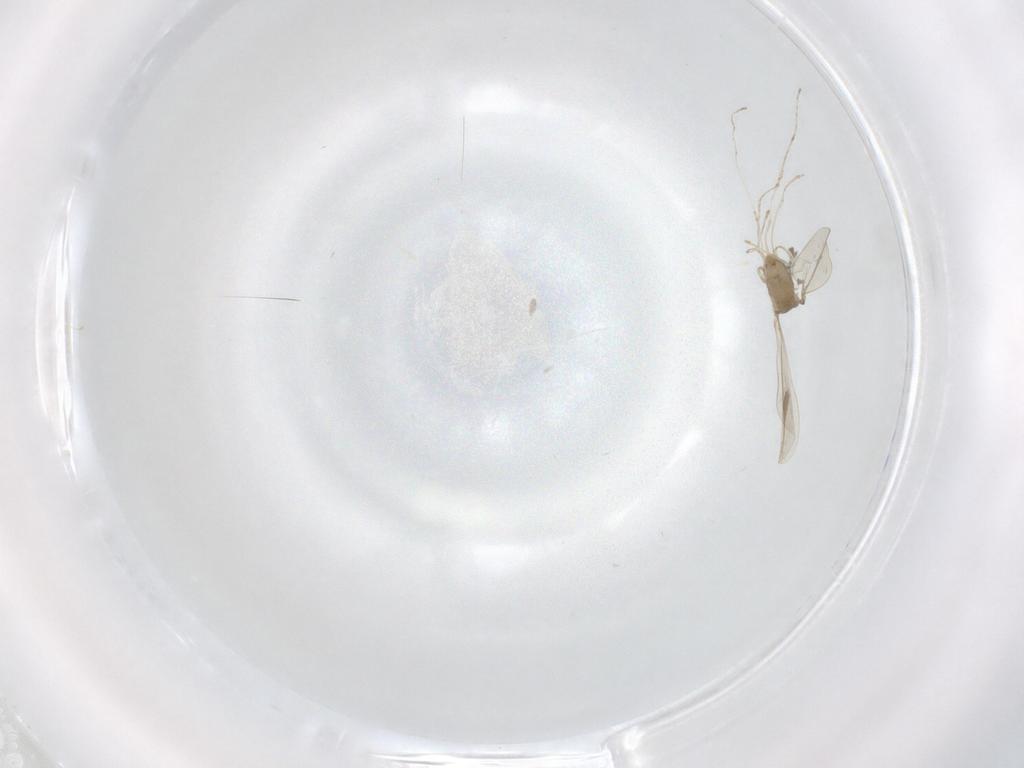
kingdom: Animalia
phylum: Arthropoda
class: Insecta
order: Diptera
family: Cecidomyiidae
